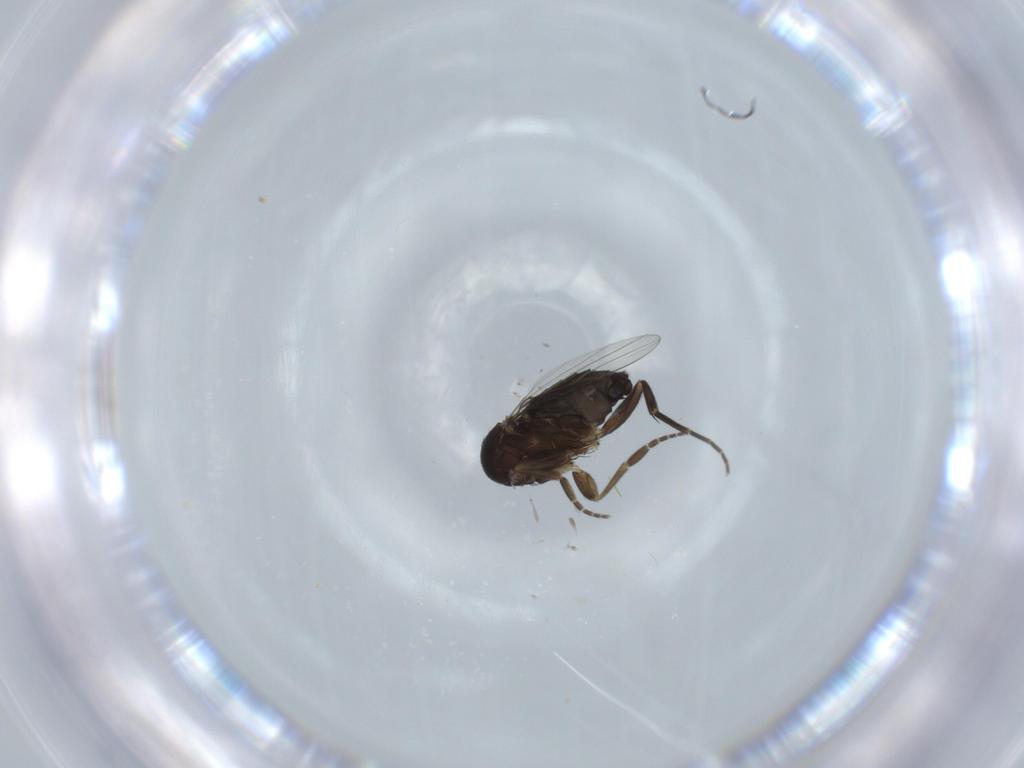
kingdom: Animalia
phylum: Arthropoda
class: Insecta
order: Diptera
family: Phoridae
